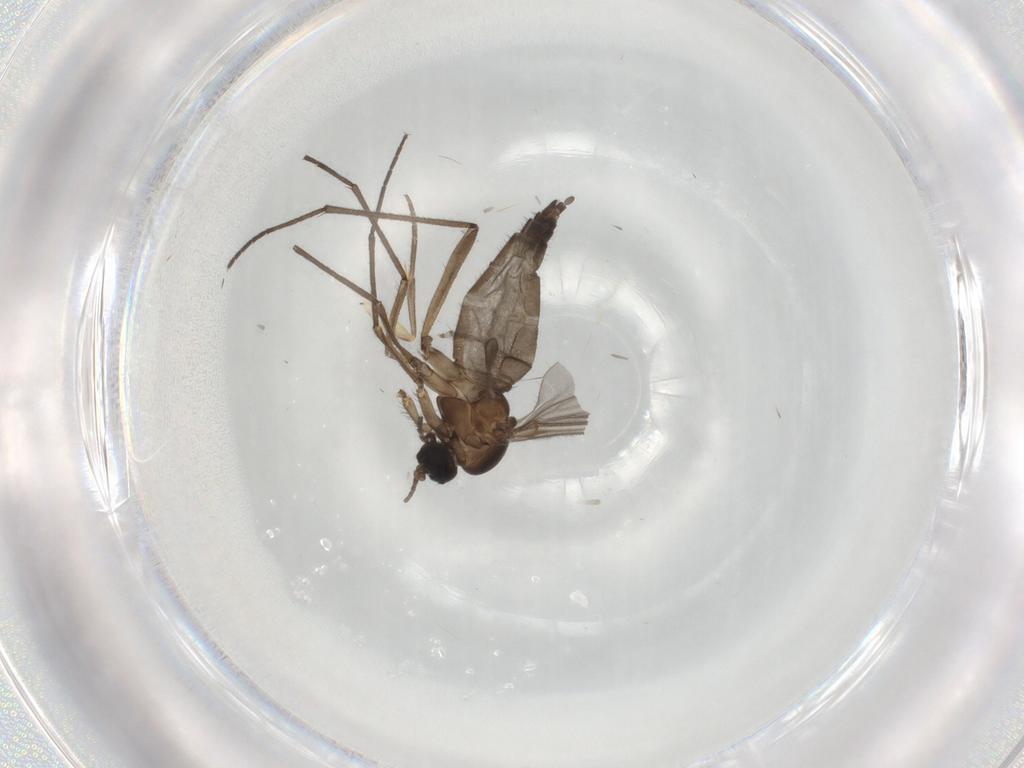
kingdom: Animalia
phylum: Arthropoda
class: Insecta
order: Diptera
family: Sciaridae
